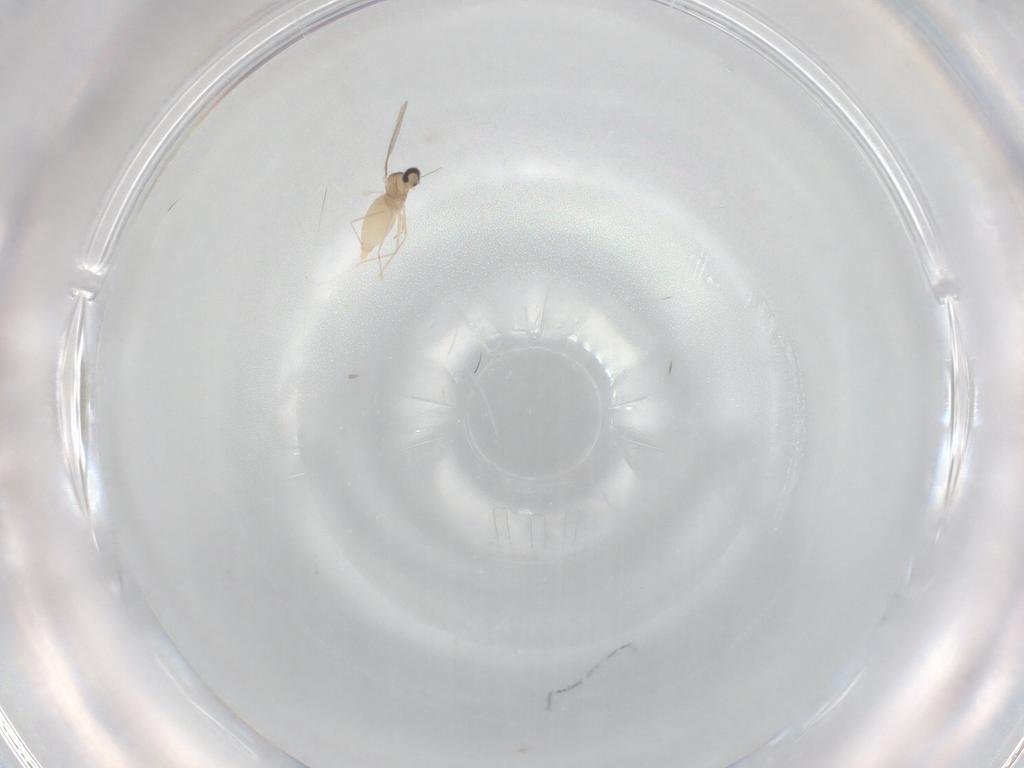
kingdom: Animalia
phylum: Arthropoda
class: Insecta
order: Diptera
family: Cecidomyiidae
